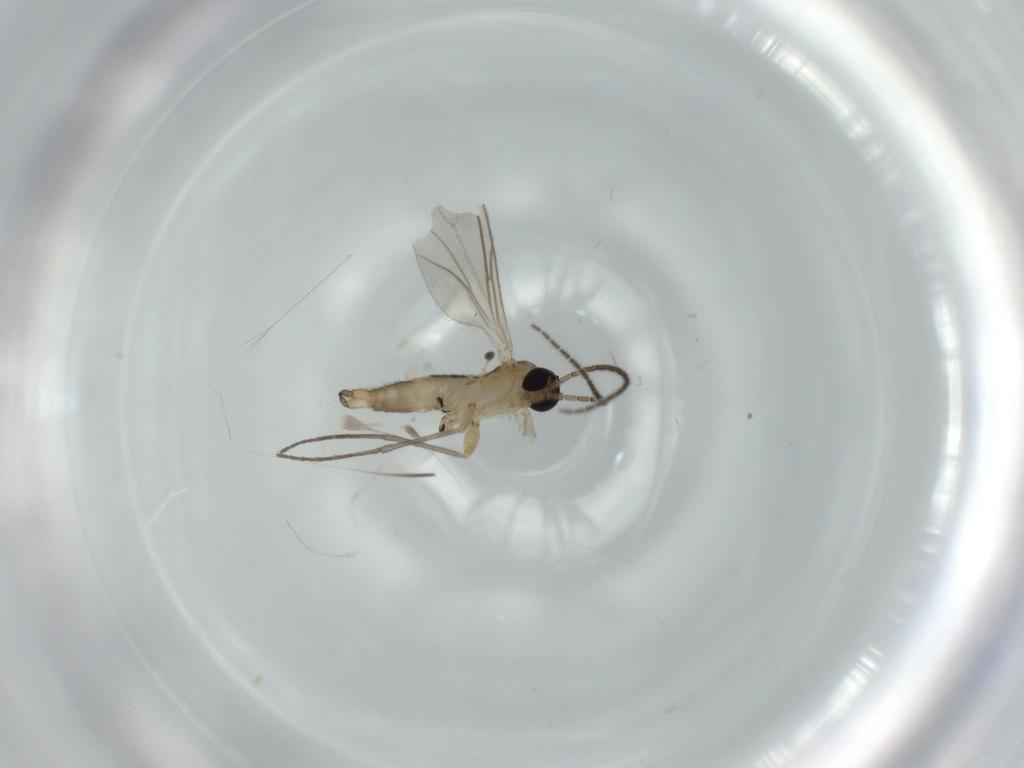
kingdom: Animalia
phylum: Arthropoda
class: Insecta
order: Diptera
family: Sciaridae
